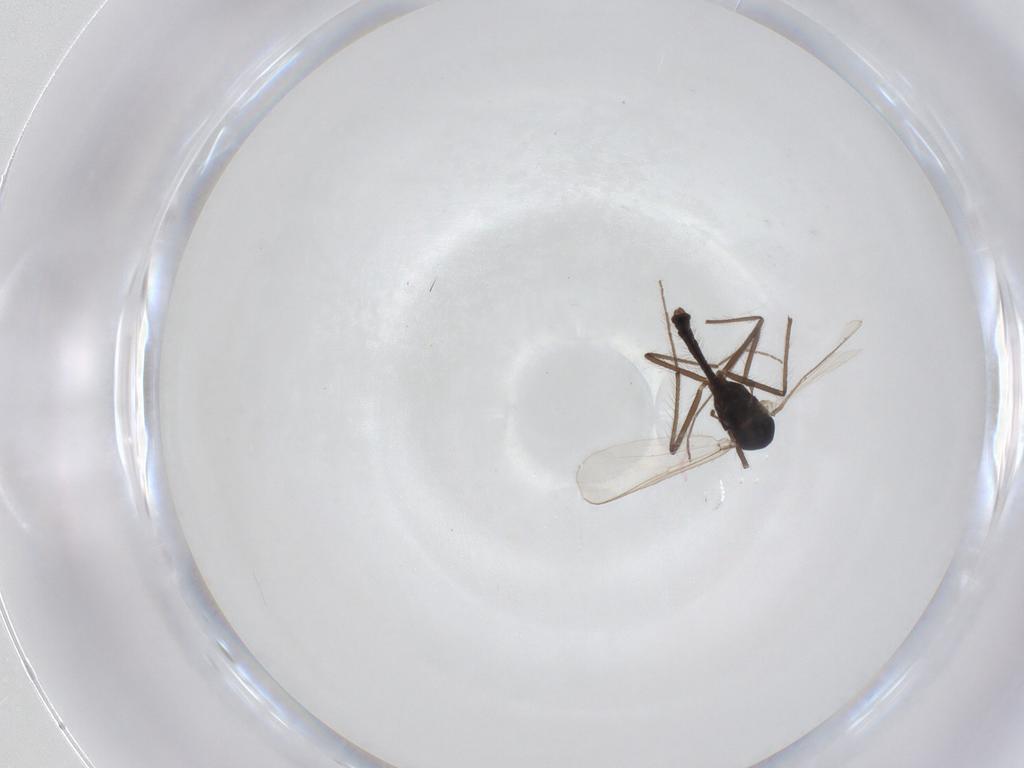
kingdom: Animalia
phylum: Arthropoda
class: Insecta
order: Diptera
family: Chironomidae
